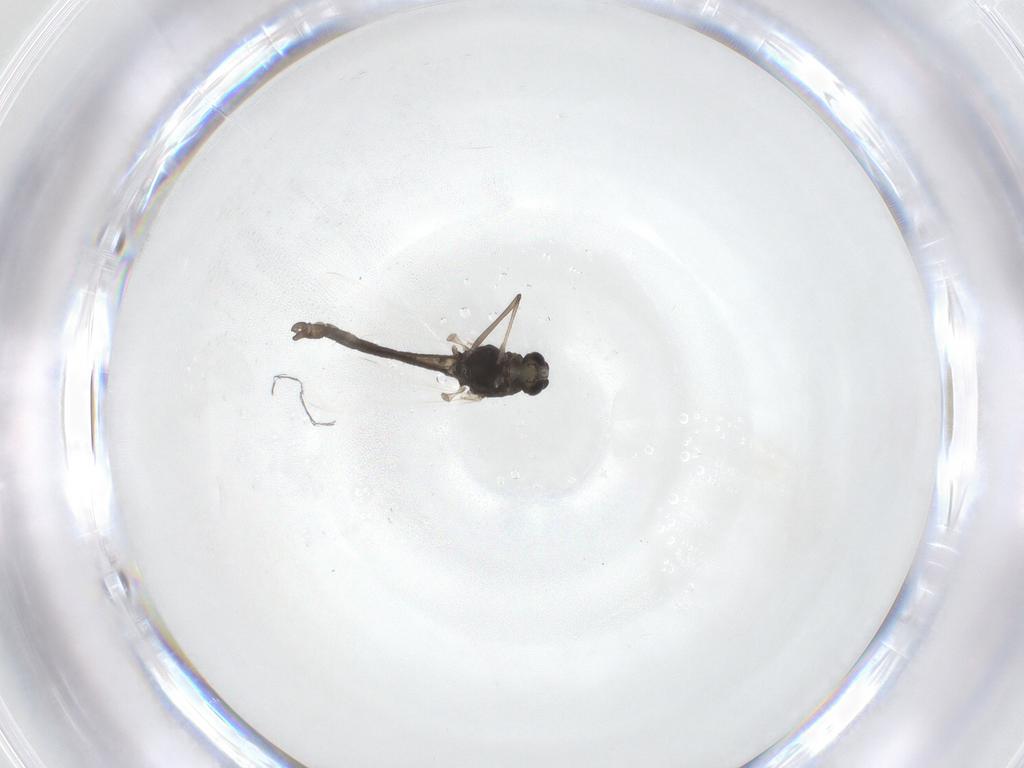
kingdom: Animalia
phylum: Arthropoda
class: Insecta
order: Diptera
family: Chironomidae
